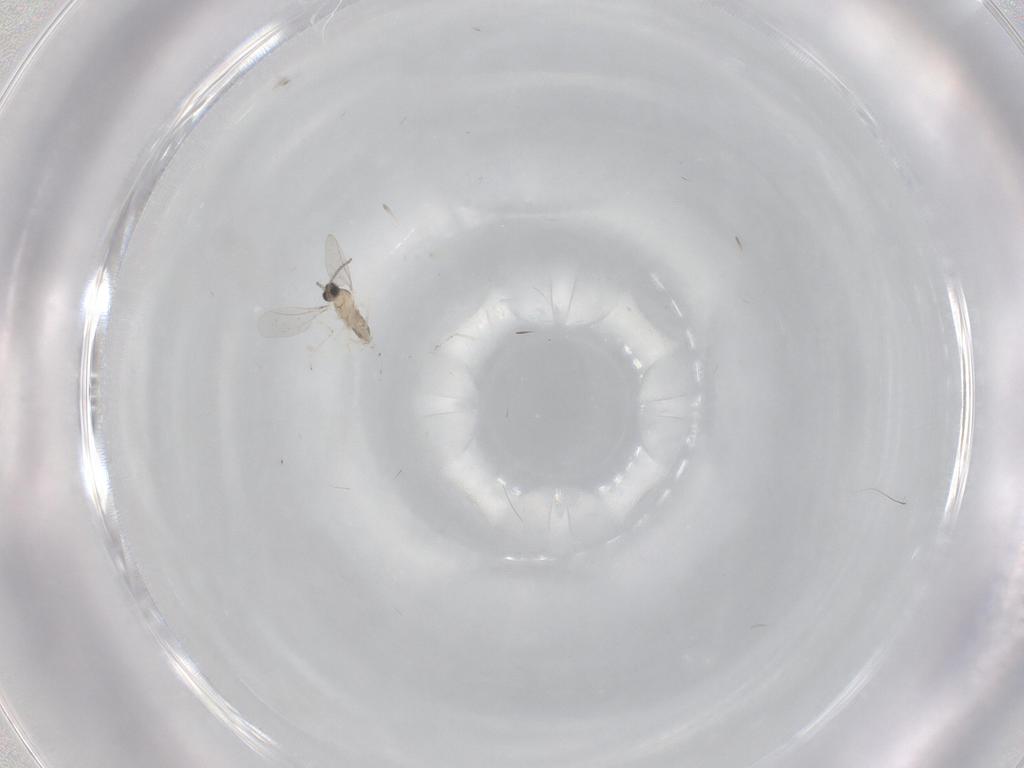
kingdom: Animalia
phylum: Arthropoda
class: Insecta
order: Diptera
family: Cecidomyiidae
